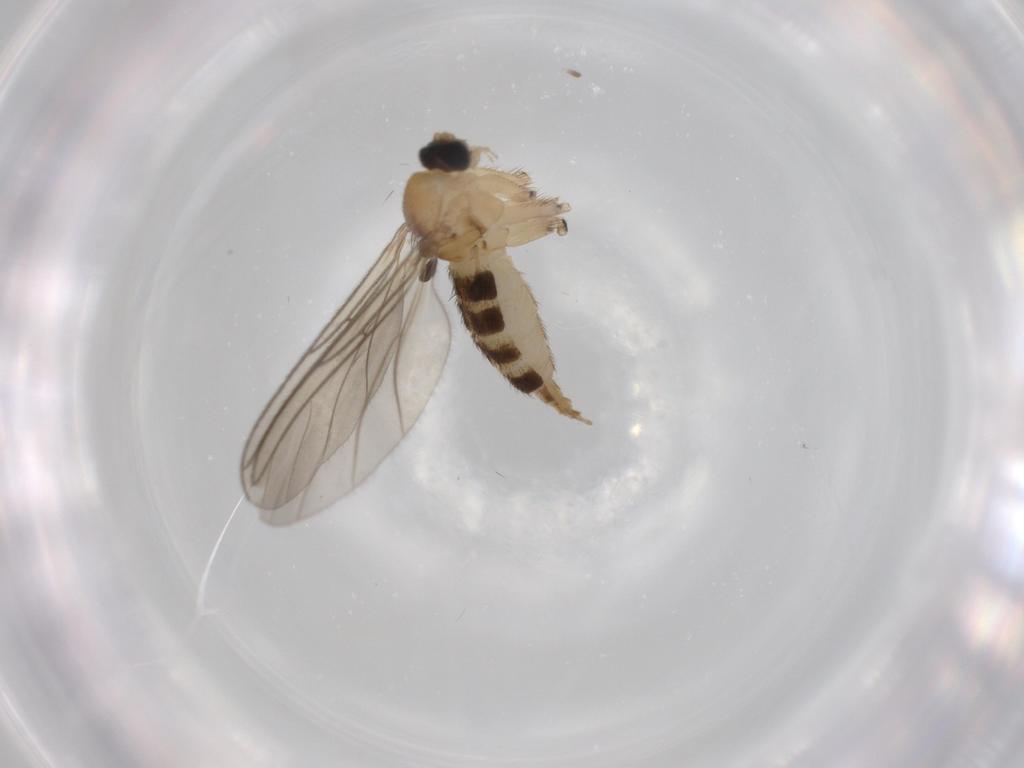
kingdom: Animalia
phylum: Arthropoda
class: Insecta
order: Diptera
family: Sciaridae
